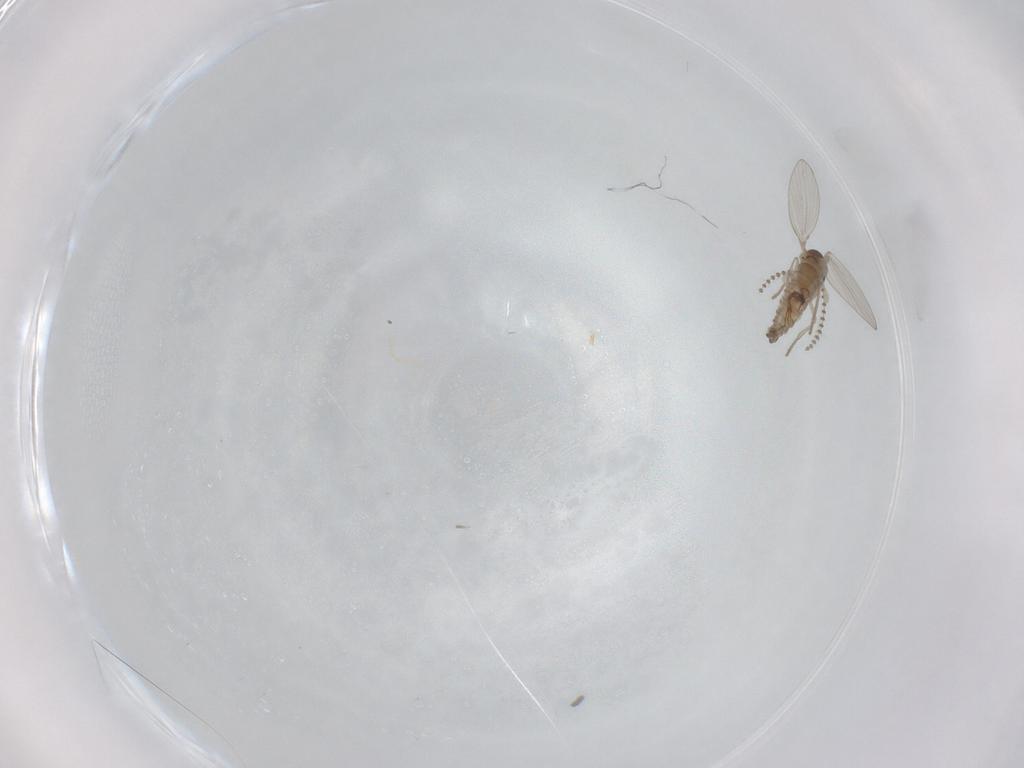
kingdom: Animalia
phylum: Arthropoda
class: Insecta
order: Diptera
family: Psychodidae
